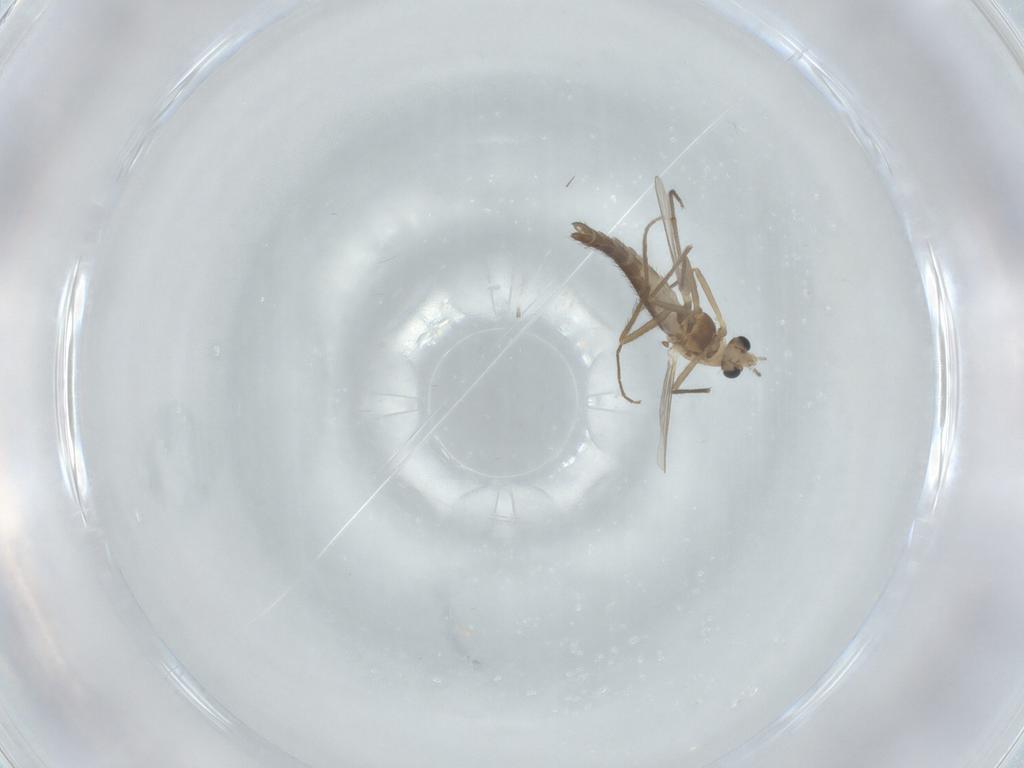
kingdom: Animalia
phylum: Arthropoda
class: Insecta
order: Diptera
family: Chironomidae
